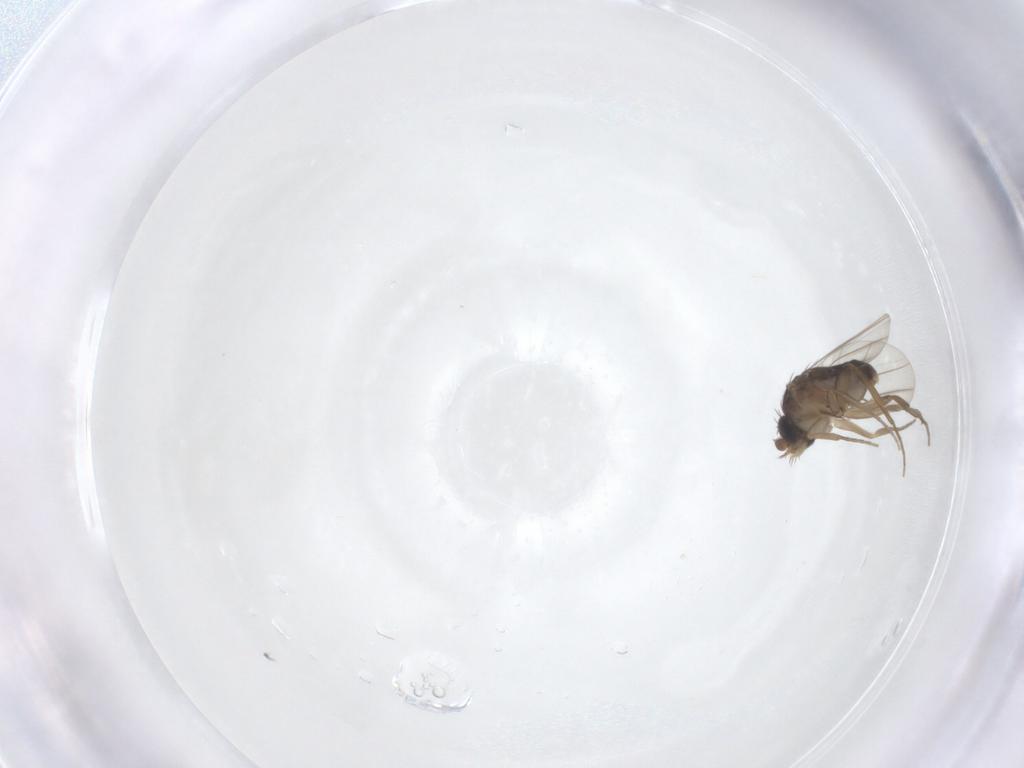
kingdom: Animalia
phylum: Arthropoda
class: Insecta
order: Diptera
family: Phoridae
